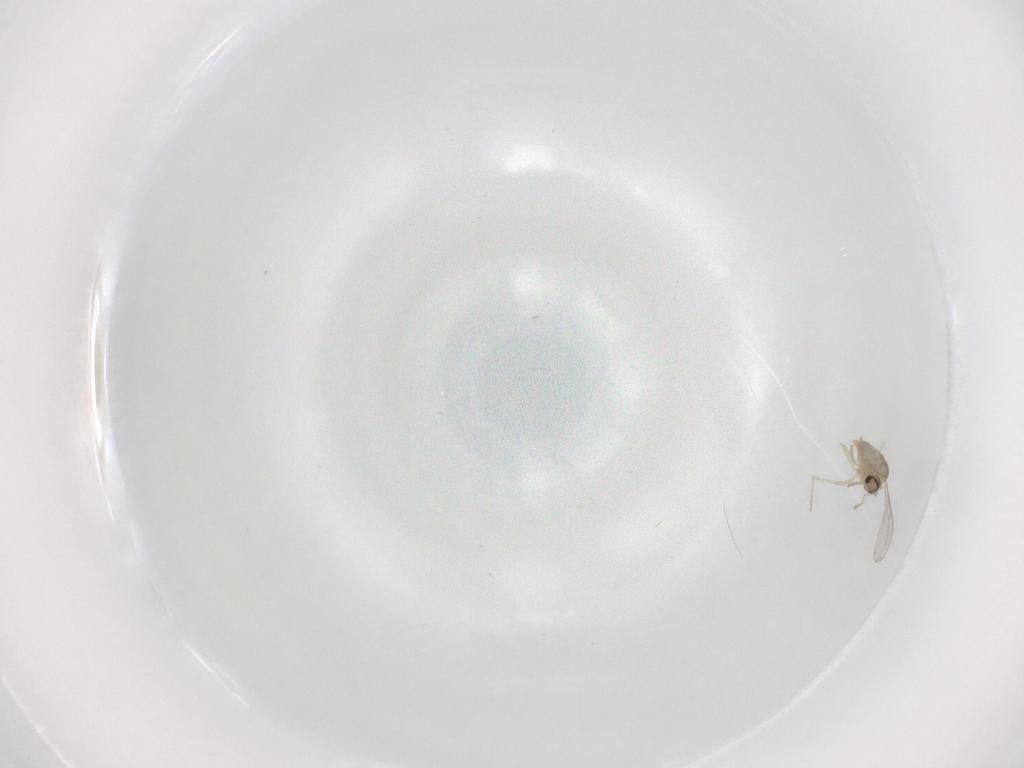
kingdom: Animalia
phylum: Arthropoda
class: Insecta
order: Diptera
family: Cecidomyiidae
